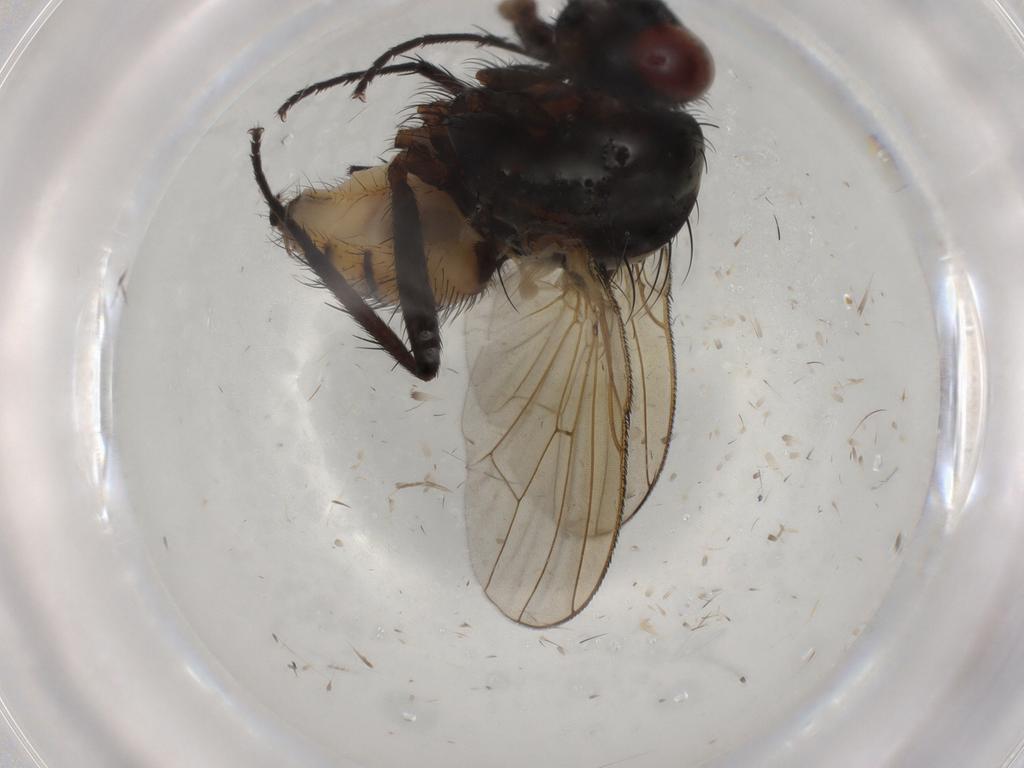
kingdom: Animalia
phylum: Arthropoda
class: Insecta
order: Diptera
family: Anthomyiidae
